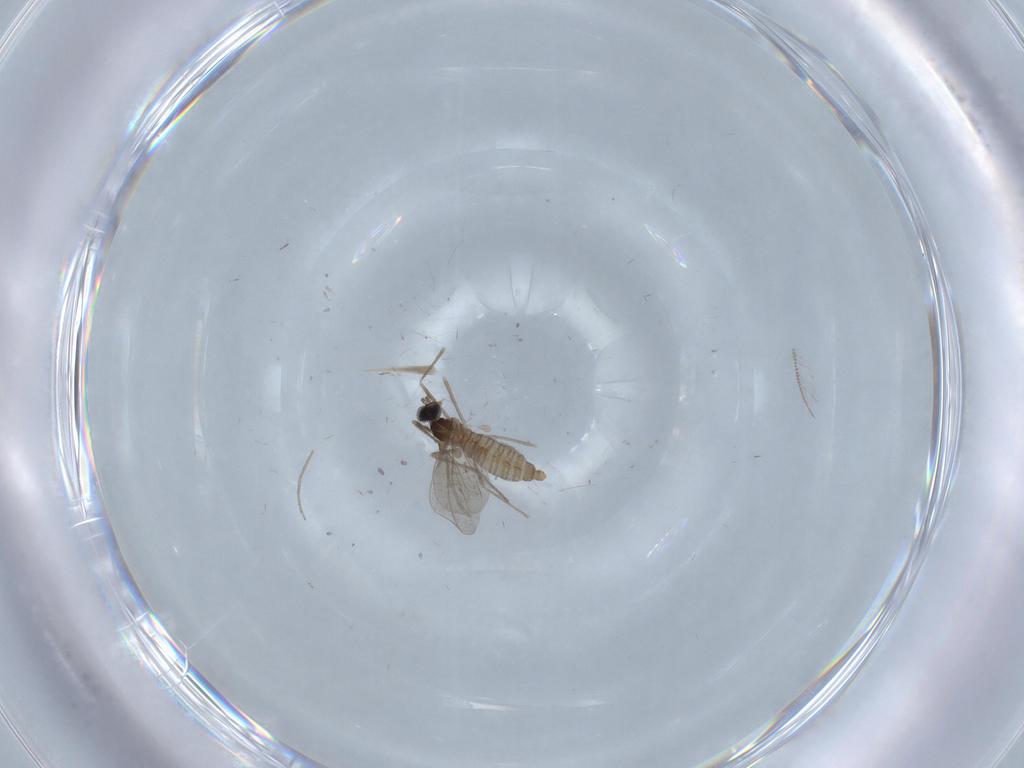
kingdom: Animalia
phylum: Arthropoda
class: Insecta
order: Diptera
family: Cecidomyiidae
